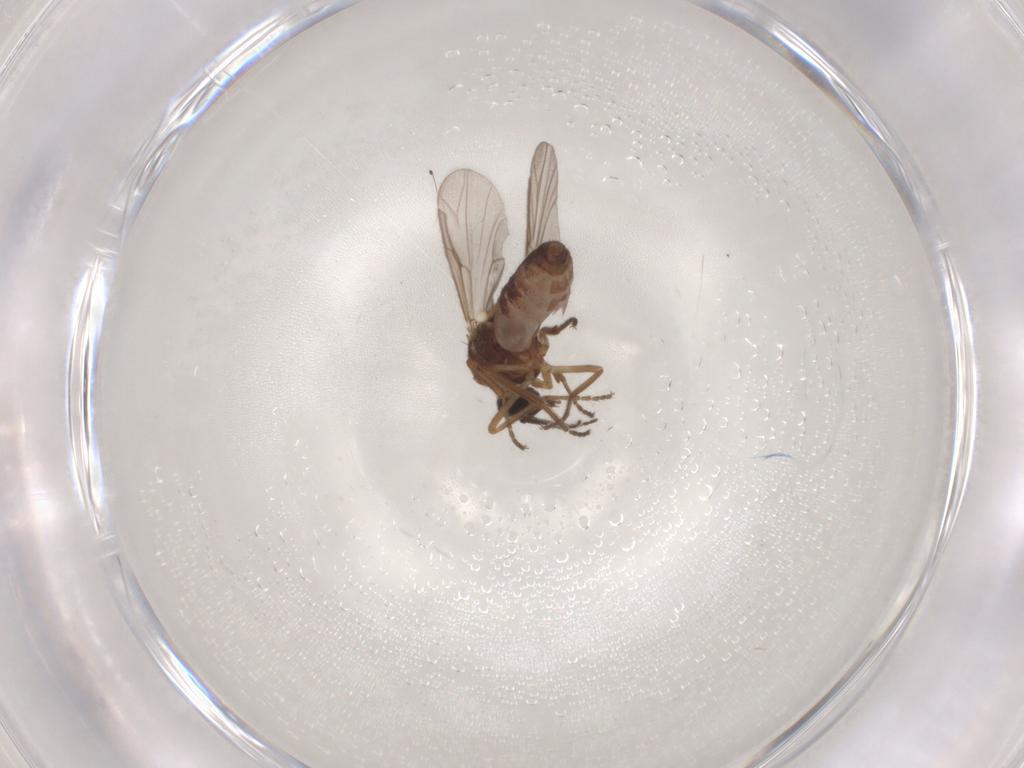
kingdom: Animalia
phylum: Arthropoda
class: Insecta
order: Diptera
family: Ceratopogonidae
